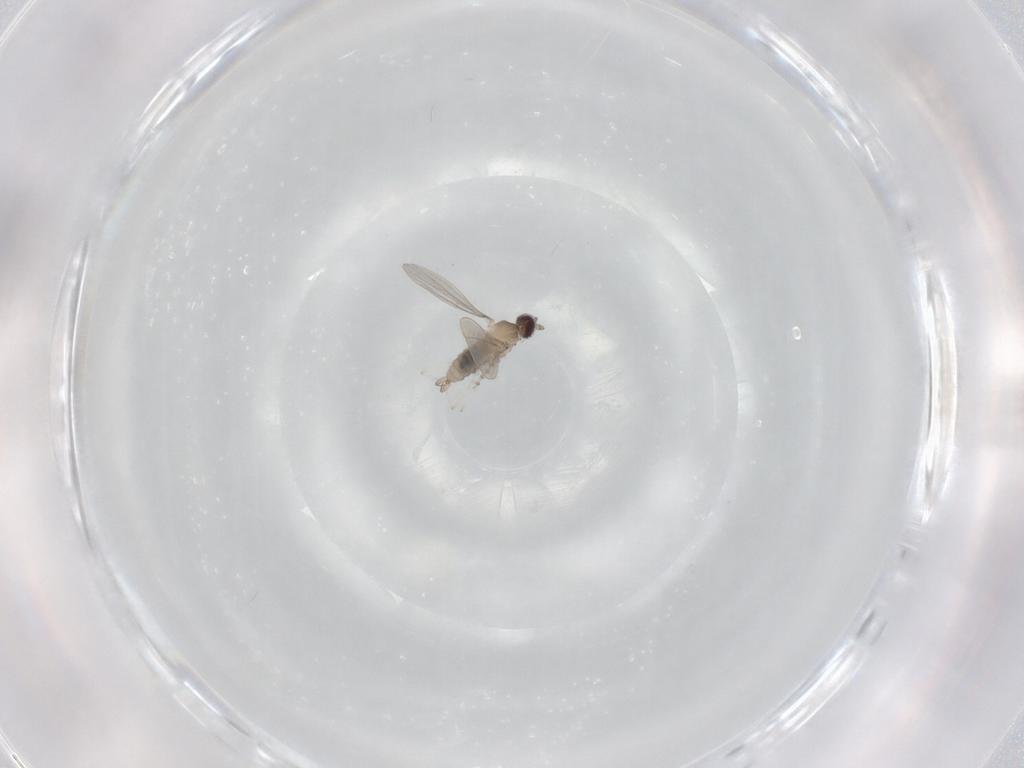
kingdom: Animalia
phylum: Arthropoda
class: Insecta
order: Diptera
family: Cecidomyiidae
